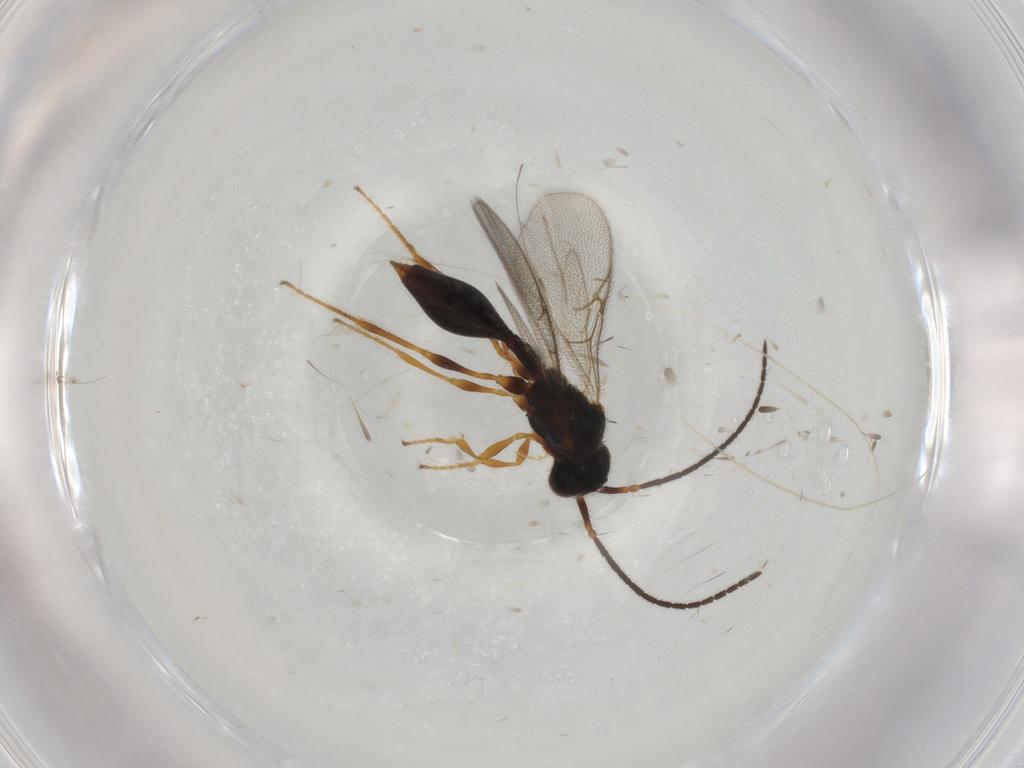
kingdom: Animalia
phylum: Arthropoda
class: Insecta
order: Hymenoptera
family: Formicidae
